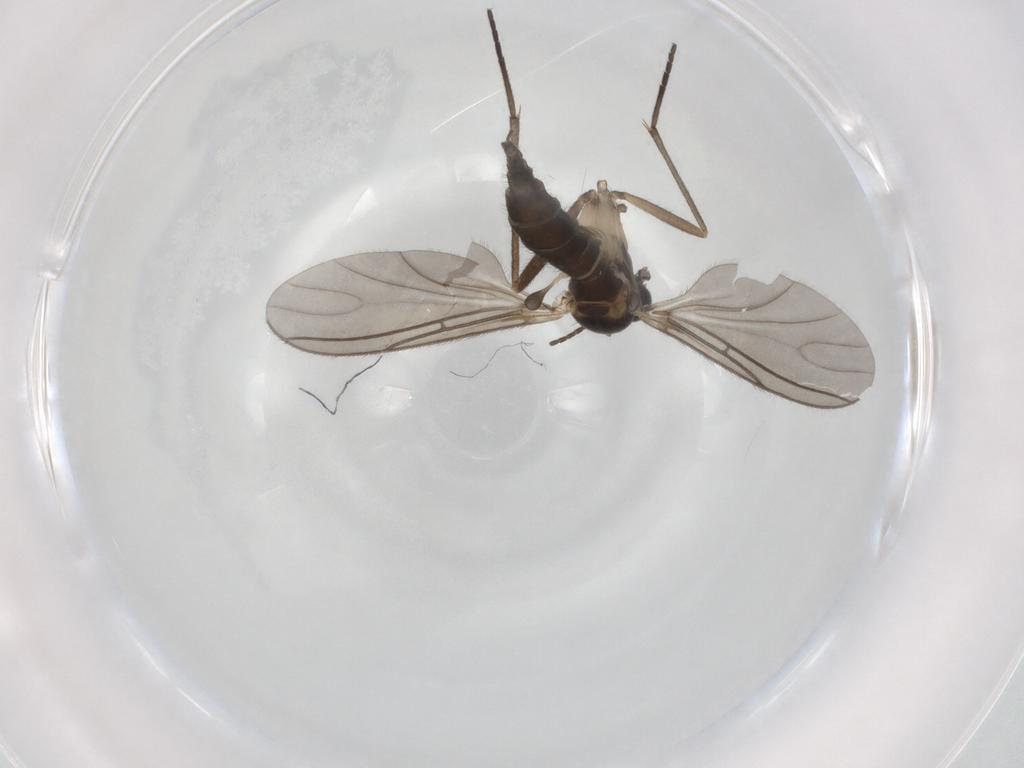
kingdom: Animalia
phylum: Arthropoda
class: Insecta
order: Diptera
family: Sciaridae
